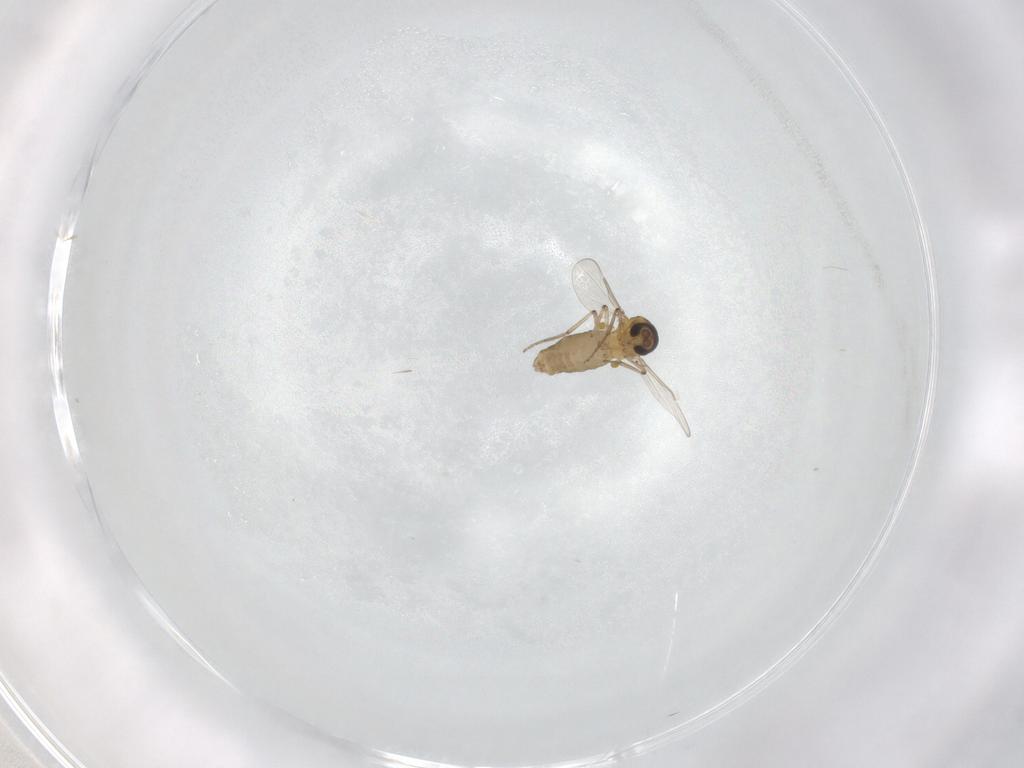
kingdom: Animalia
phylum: Arthropoda
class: Insecta
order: Diptera
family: Ceratopogonidae
